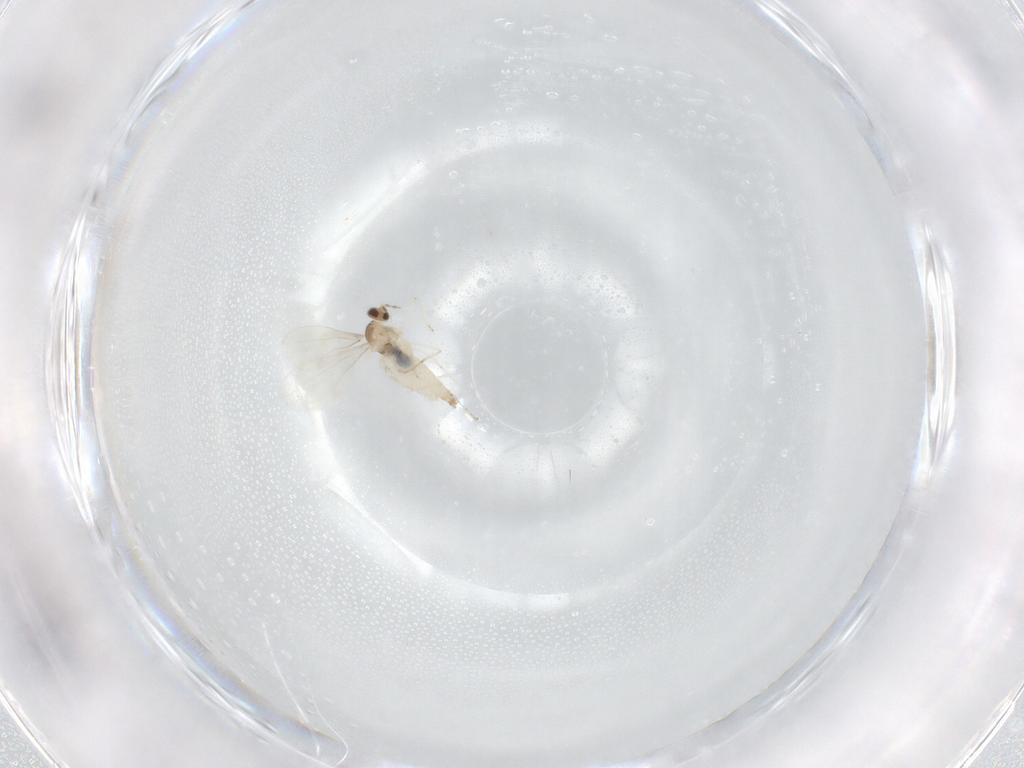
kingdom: Animalia
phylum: Arthropoda
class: Insecta
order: Diptera
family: Cecidomyiidae
